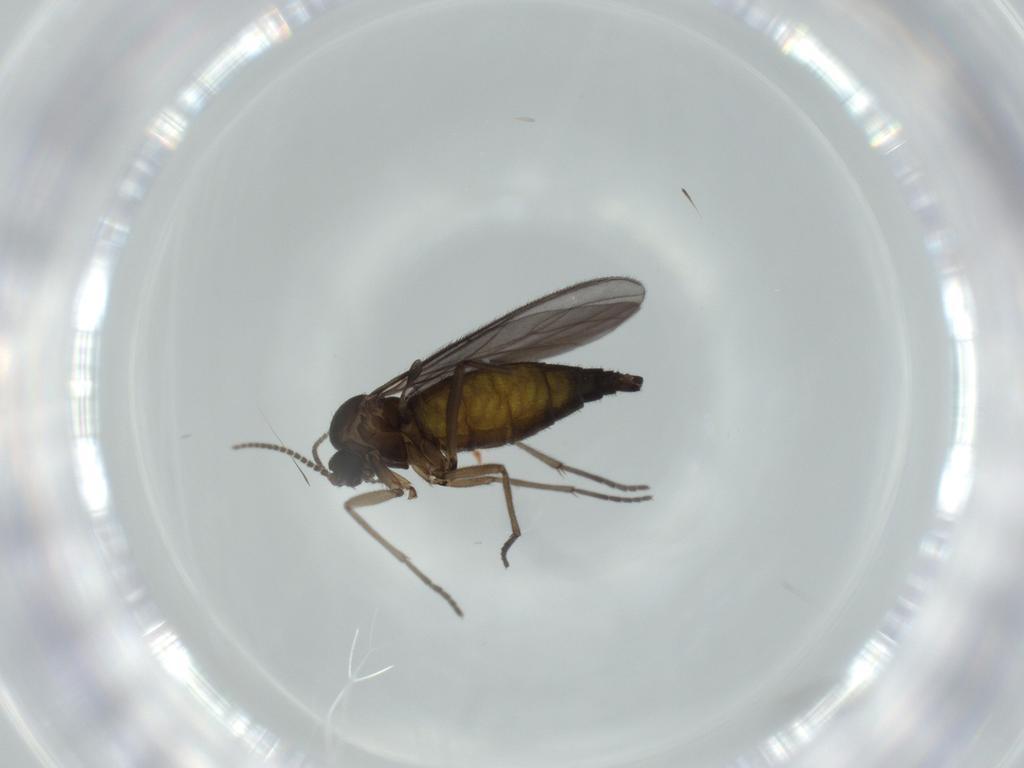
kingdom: Animalia
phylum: Arthropoda
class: Insecta
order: Diptera
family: Sciaridae
